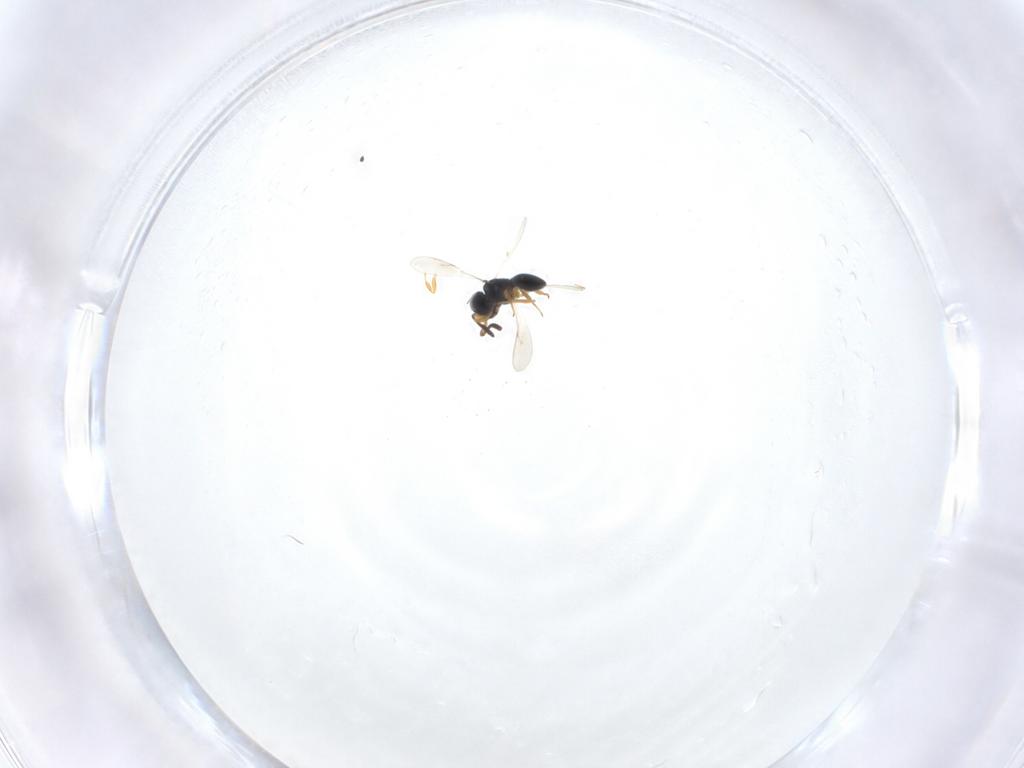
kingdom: Animalia
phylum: Arthropoda
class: Insecta
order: Hymenoptera
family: Scelionidae
